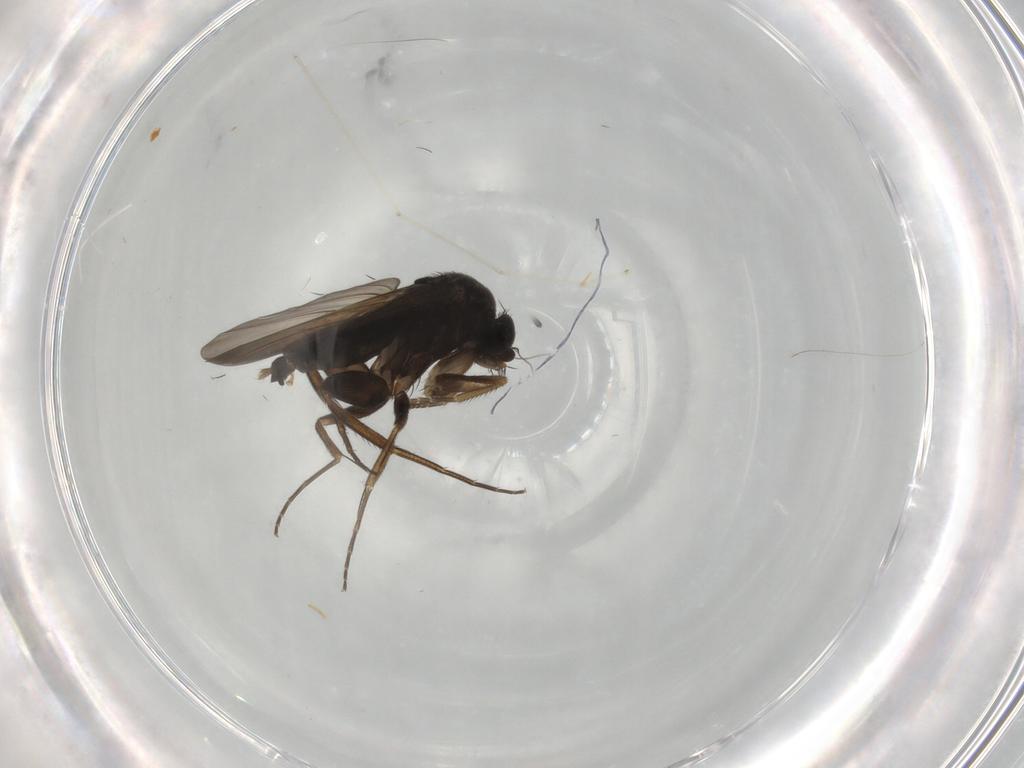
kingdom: Animalia
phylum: Arthropoda
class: Insecta
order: Diptera
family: Phoridae
